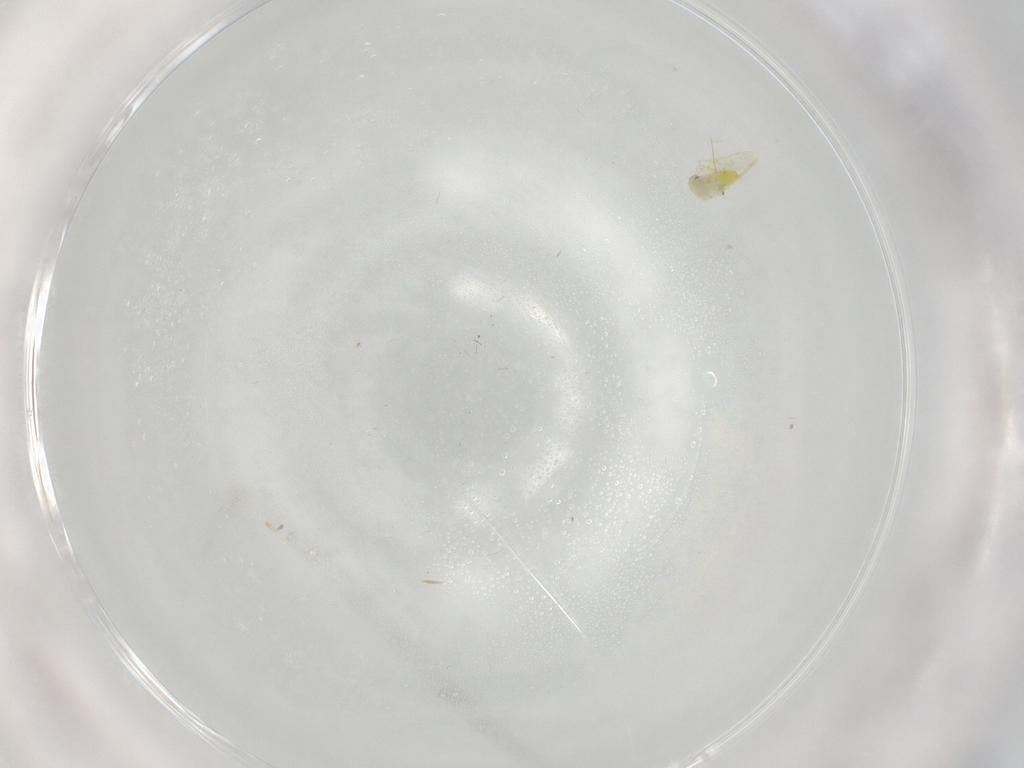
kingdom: Animalia
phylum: Arthropoda
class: Insecta
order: Hemiptera
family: Aleyrodidae
